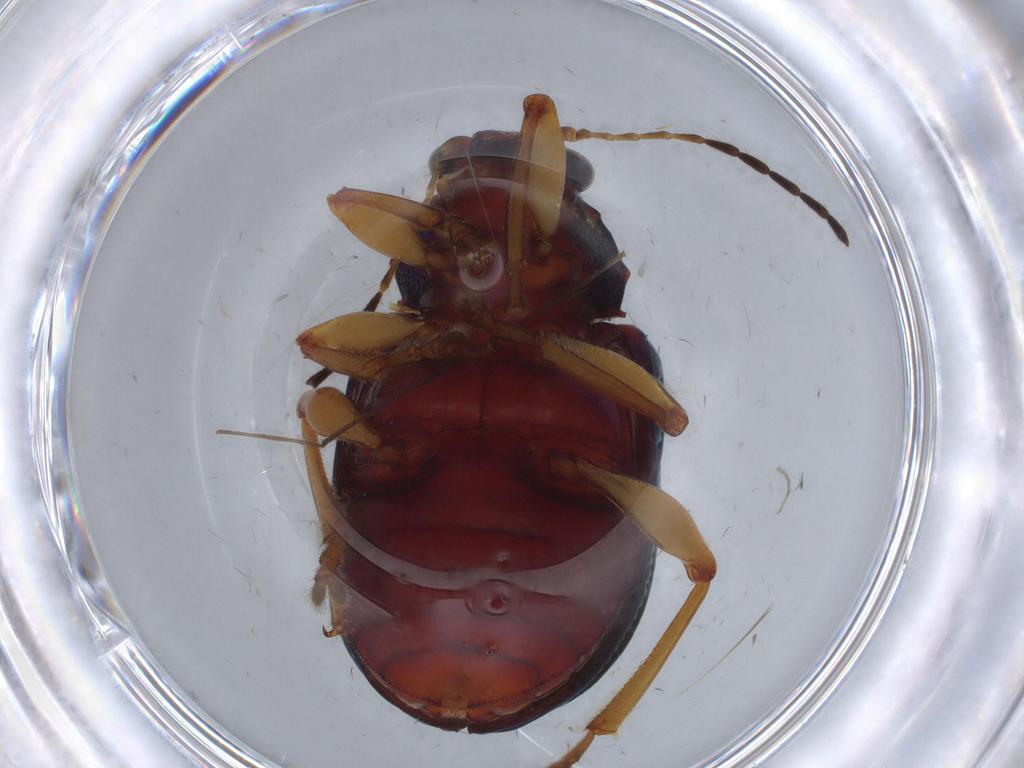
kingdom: Animalia
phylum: Arthropoda
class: Insecta
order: Coleoptera
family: Chrysomelidae
